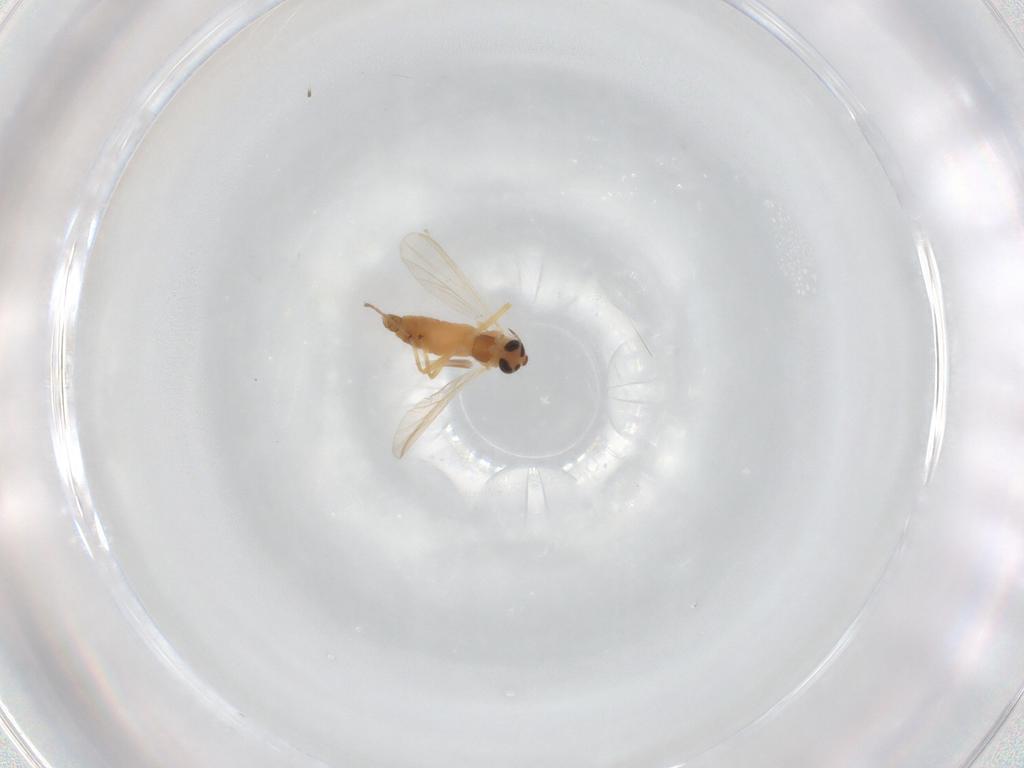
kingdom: Animalia
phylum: Arthropoda
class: Insecta
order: Diptera
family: Chironomidae
